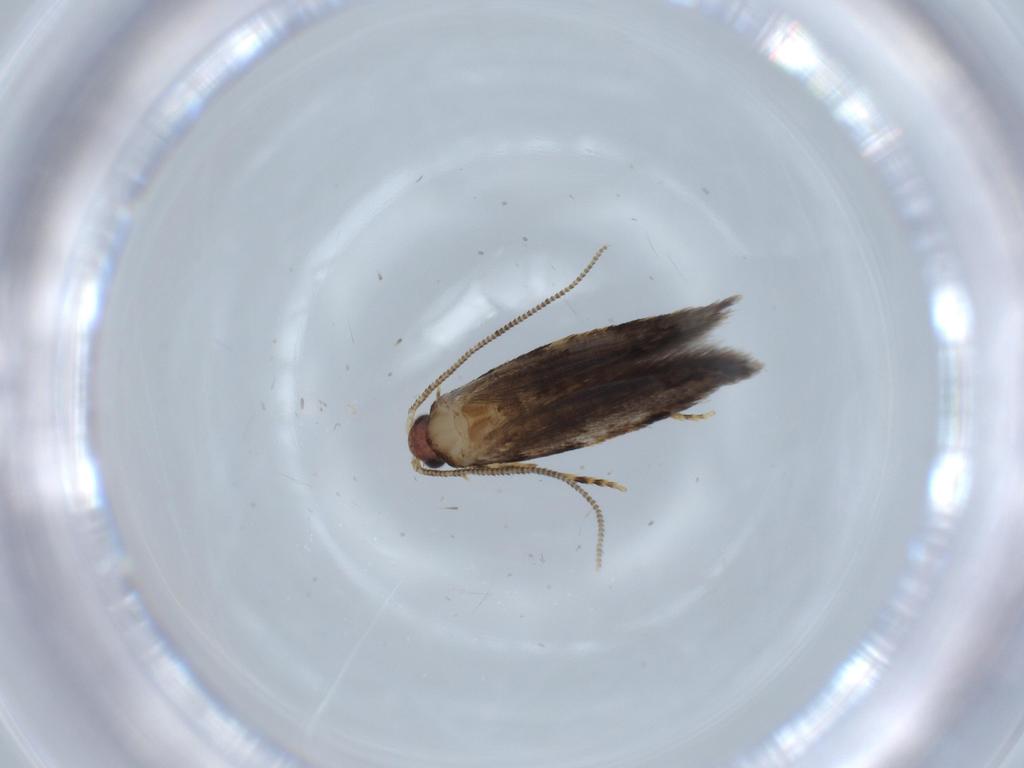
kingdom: Animalia
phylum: Arthropoda
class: Insecta
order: Lepidoptera
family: Tineidae
